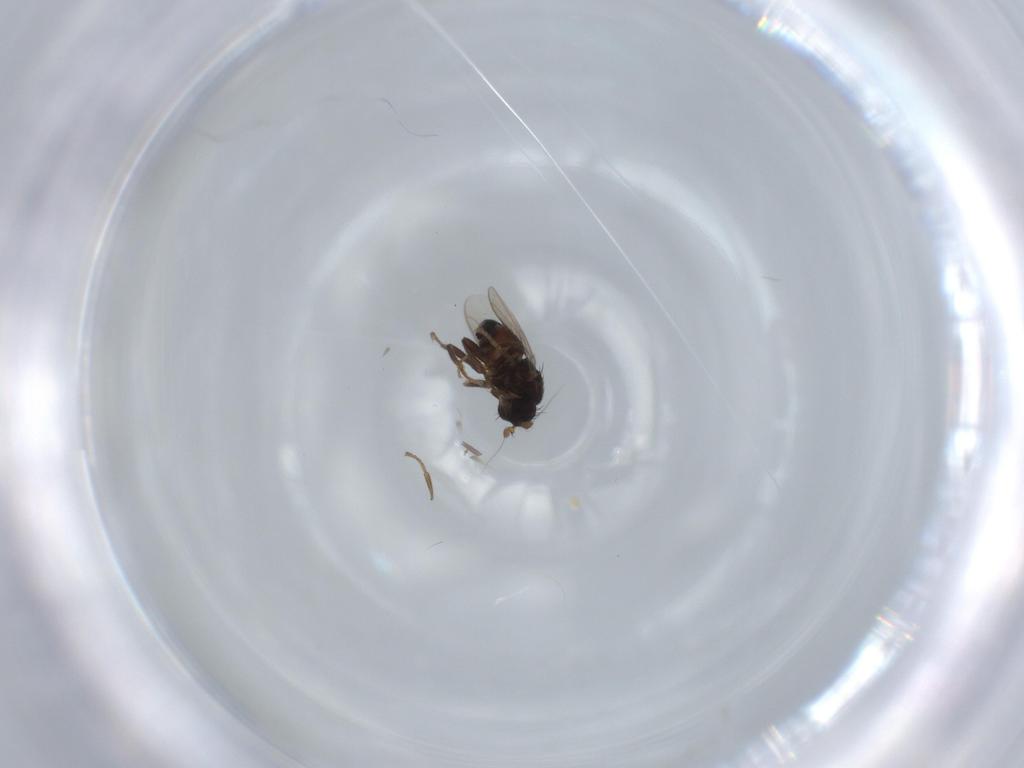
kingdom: Animalia
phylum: Arthropoda
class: Insecta
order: Diptera
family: Sphaeroceridae
